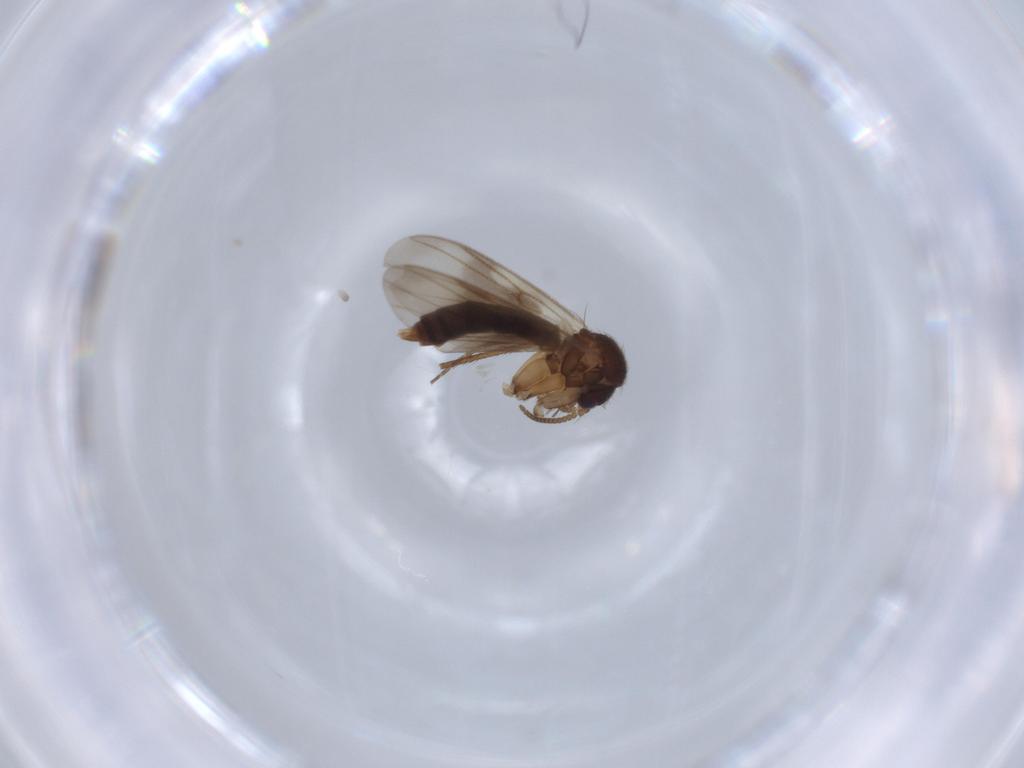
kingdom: Animalia
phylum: Arthropoda
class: Insecta
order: Diptera
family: Tachinidae
